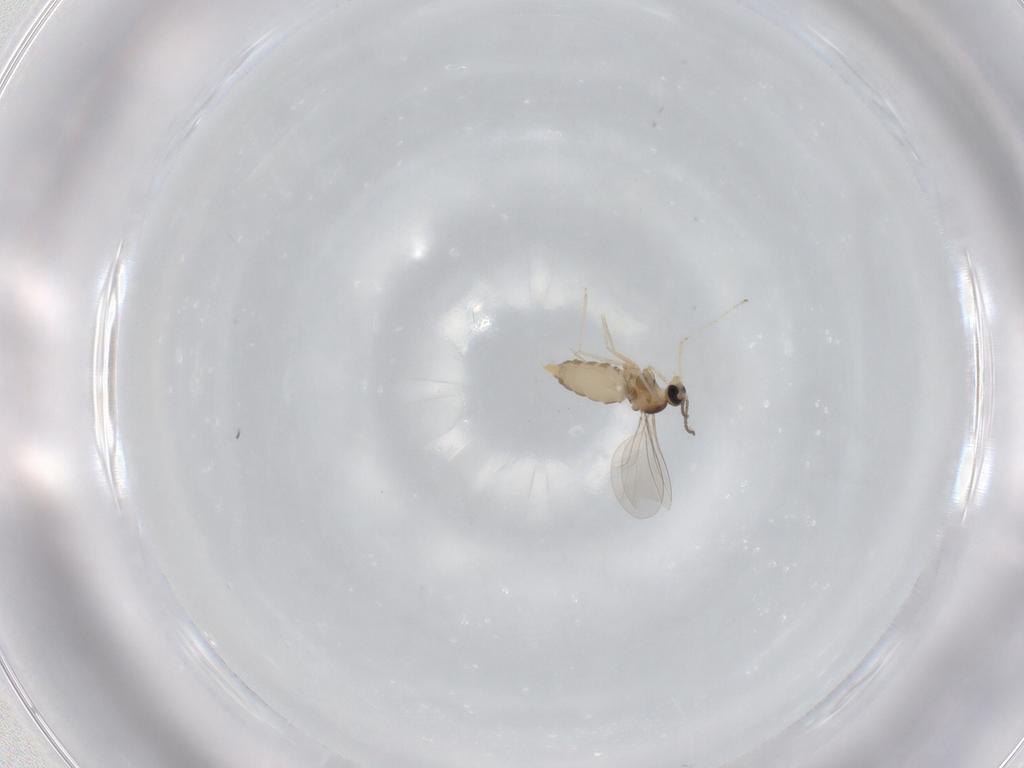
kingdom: Animalia
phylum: Arthropoda
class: Insecta
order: Diptera
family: Cecidomyiidae
